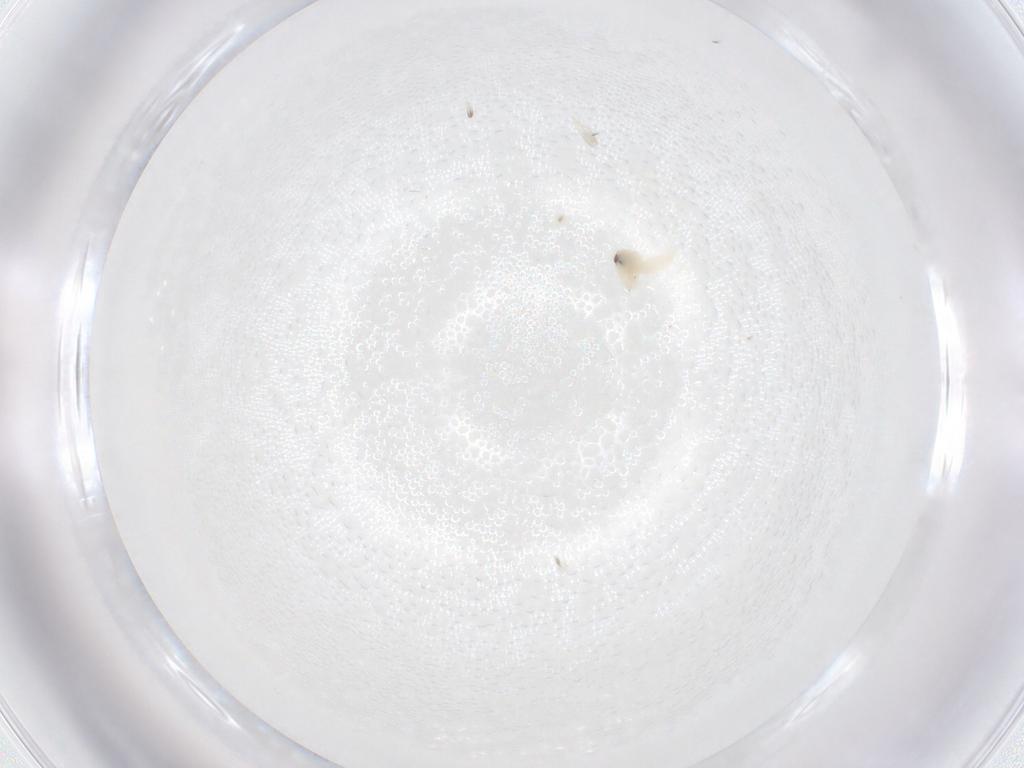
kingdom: Animalia
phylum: Arthropoda
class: Insecta
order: Hemiptera
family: Aleyrodidae
